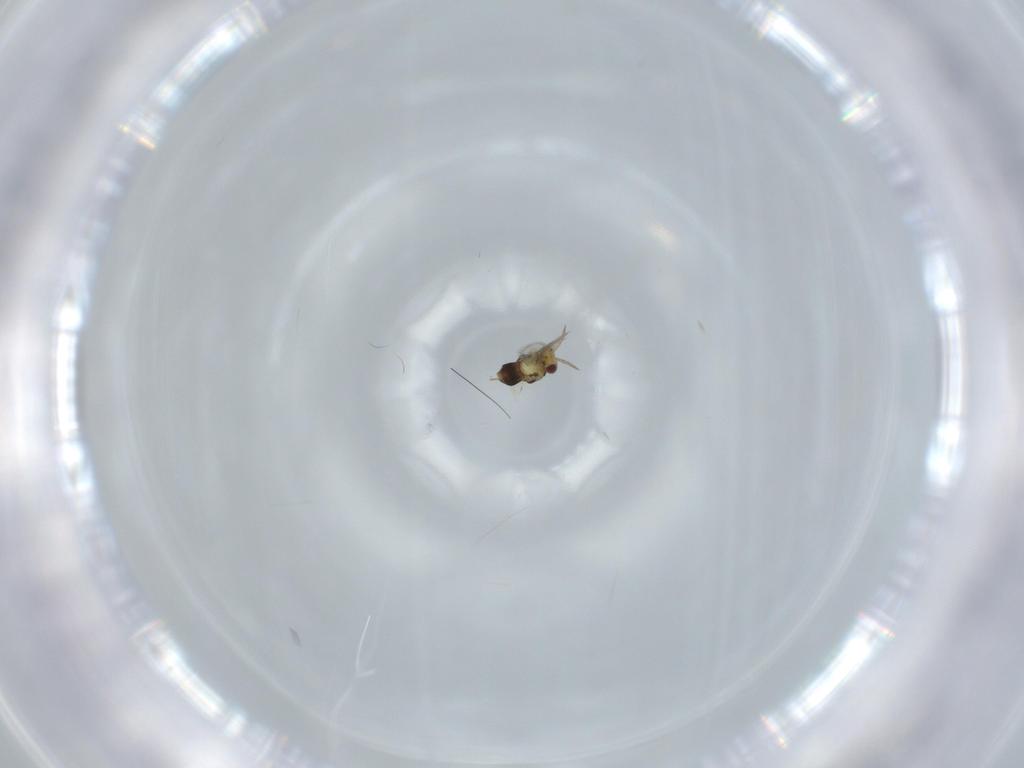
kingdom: Animalia
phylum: Arthropoda
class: Insecta
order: Hymenoptera
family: Aphelinidae
